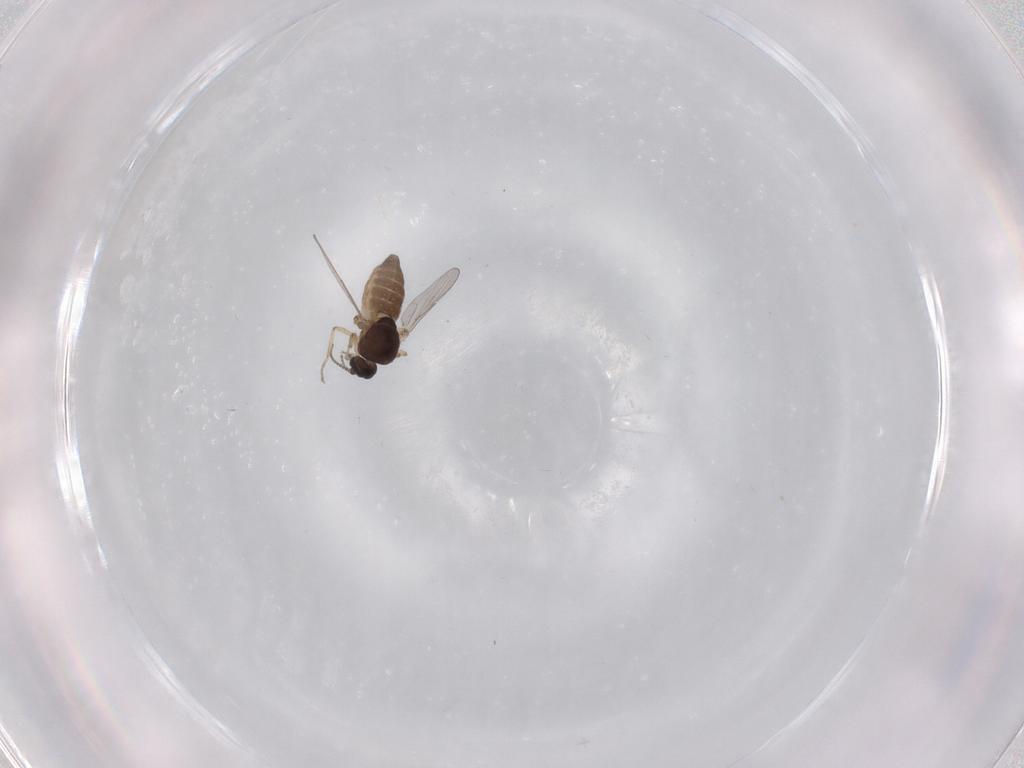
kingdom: Animalia
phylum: Arthropoda
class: Insecta
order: Diptera
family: Ceratopogonidae
